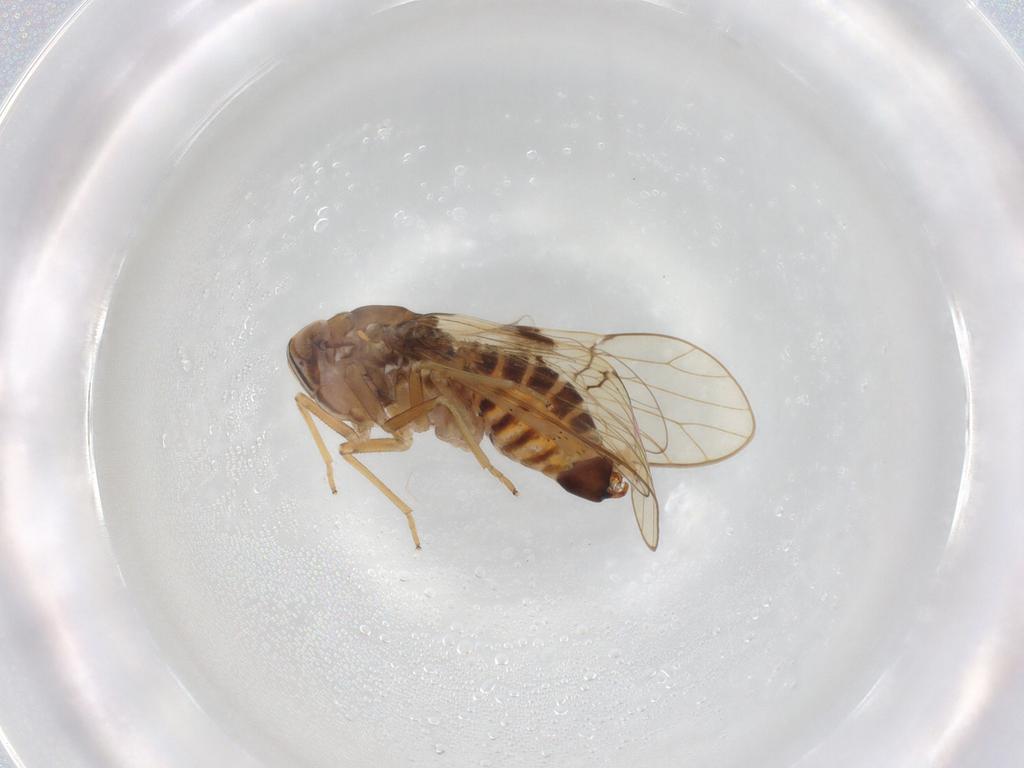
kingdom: Animalia
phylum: Arthropoda
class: Insecta
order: Hemiptera
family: Delphacidae
